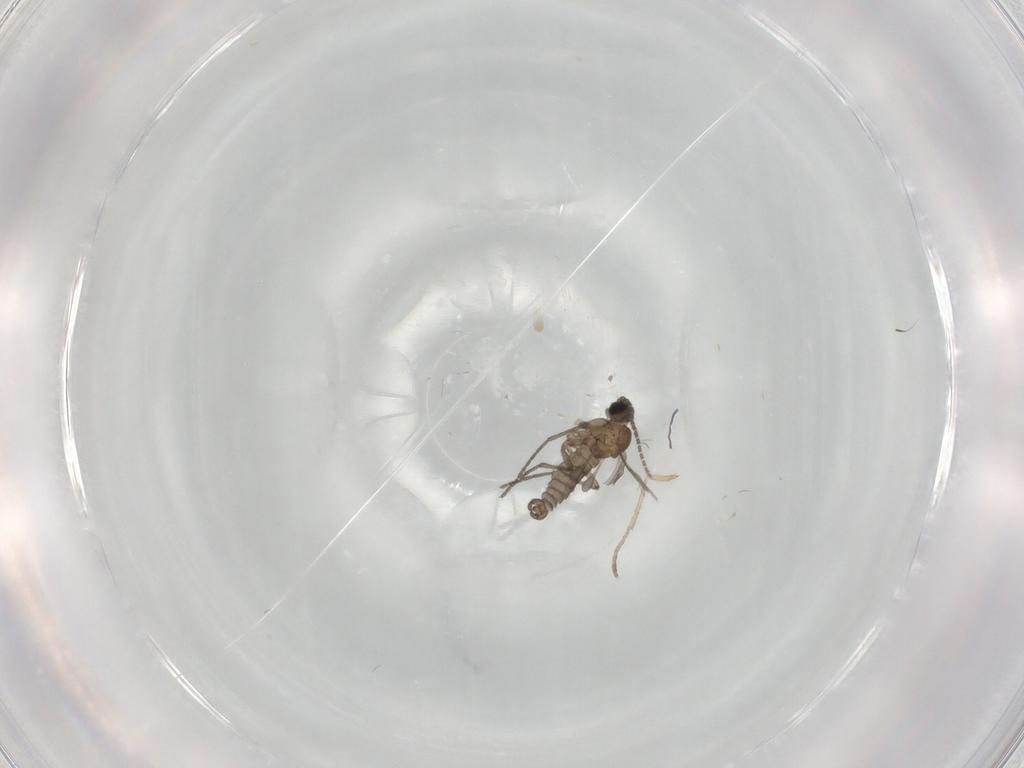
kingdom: Animalia
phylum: Arthropoda
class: Insecta
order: Diptera
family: Sciaridae
